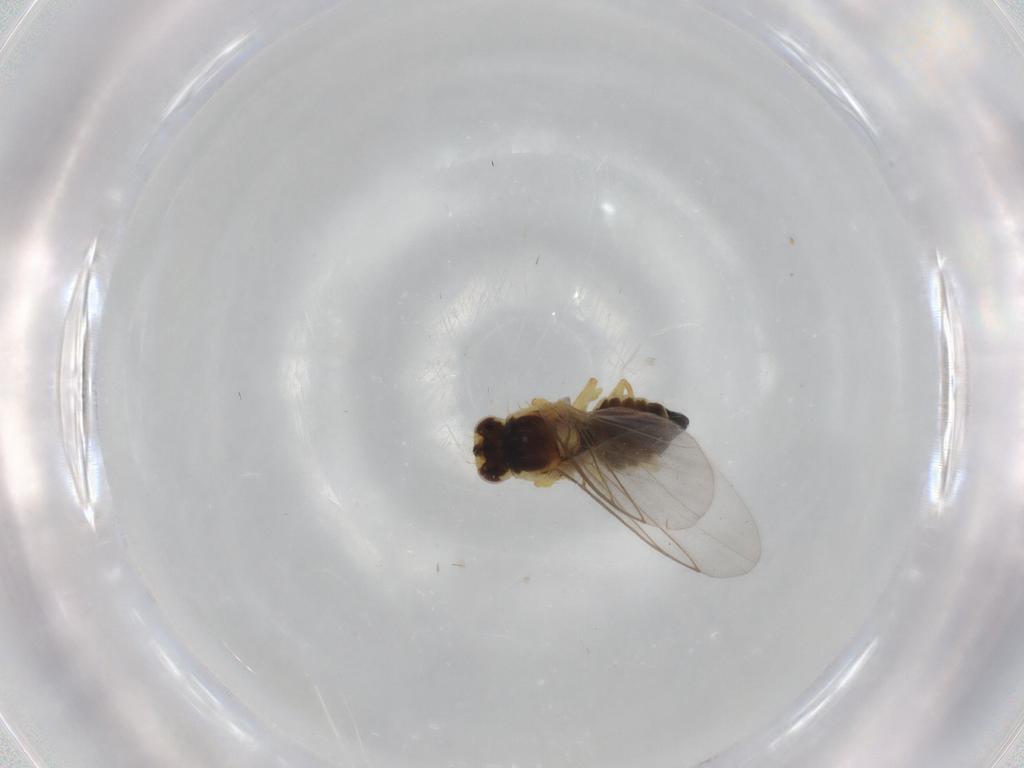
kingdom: Animalia
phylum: Arthropoda
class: Insecta
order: Diptera
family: Agromyzidae
